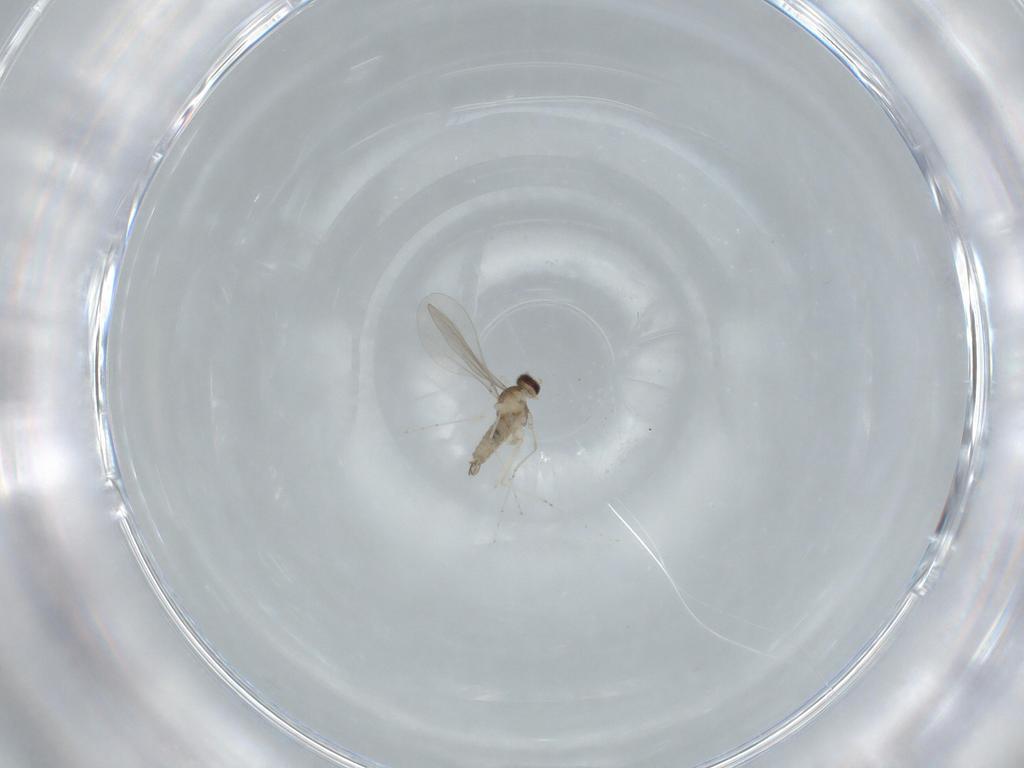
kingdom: Animalia
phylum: Arthropoda
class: Insecta
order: Diptera
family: Cecidomyiidae
